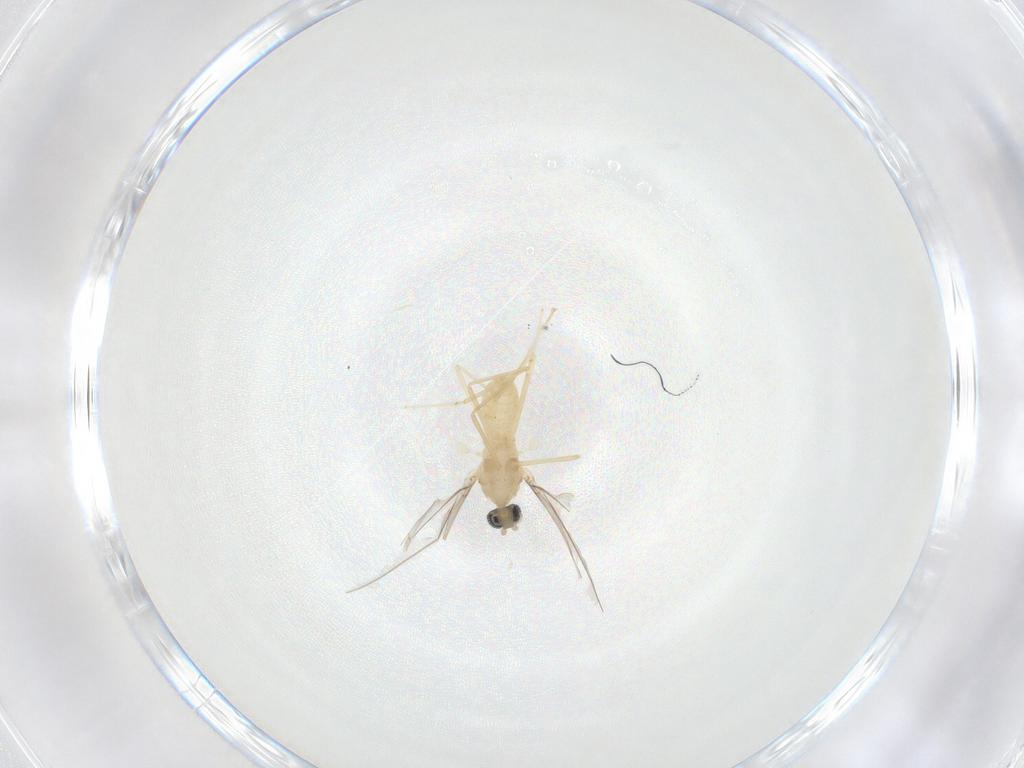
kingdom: Animalia
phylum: Arthropoda
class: Insecta
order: Diptera
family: Cecidomyiidae
